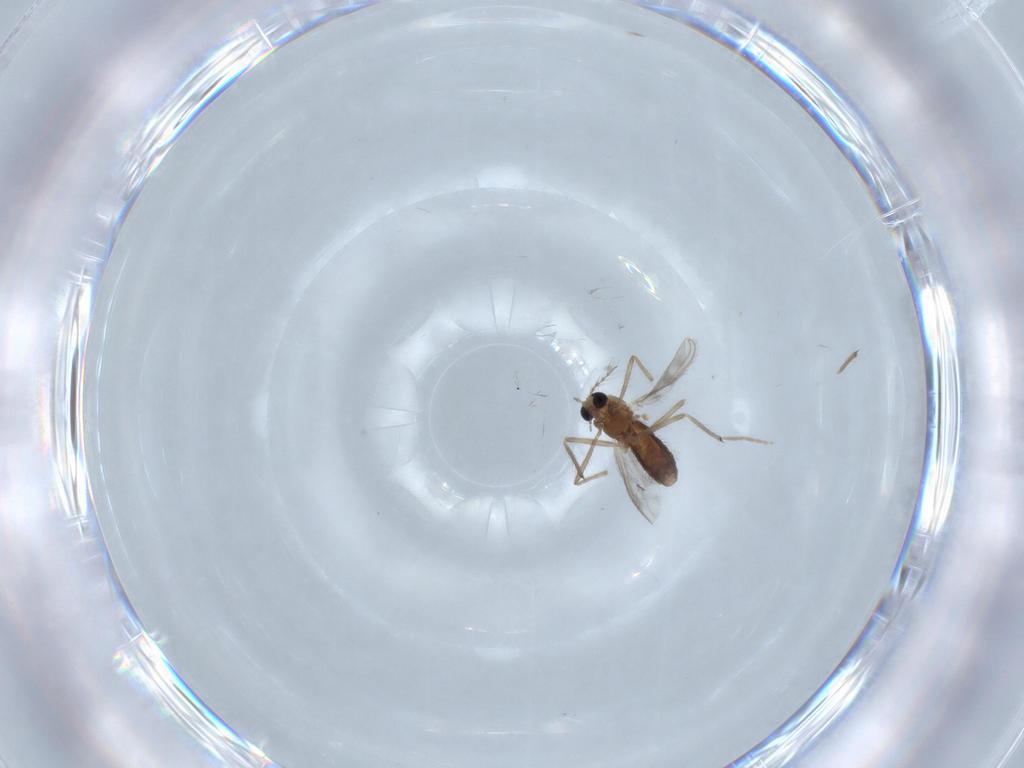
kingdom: Animalia
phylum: Arthropoda
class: Insecta
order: Diptera
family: Chironomidae
